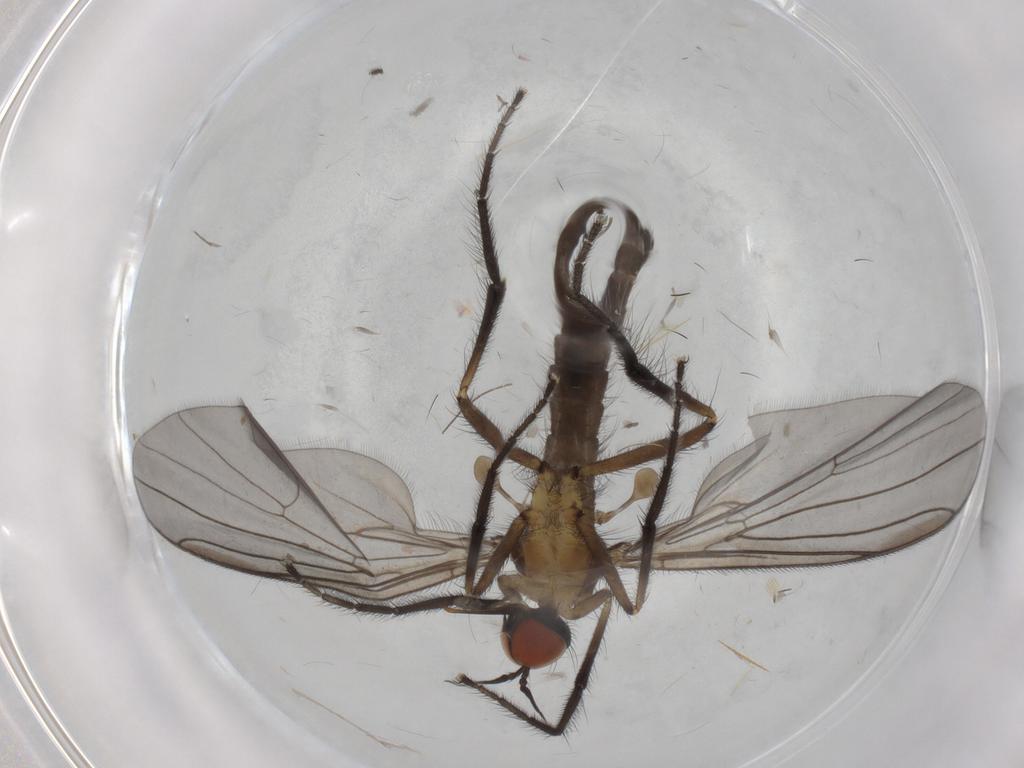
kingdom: Animalia
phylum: Arthropoda
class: Insecta
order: Diptera
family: Empididae
